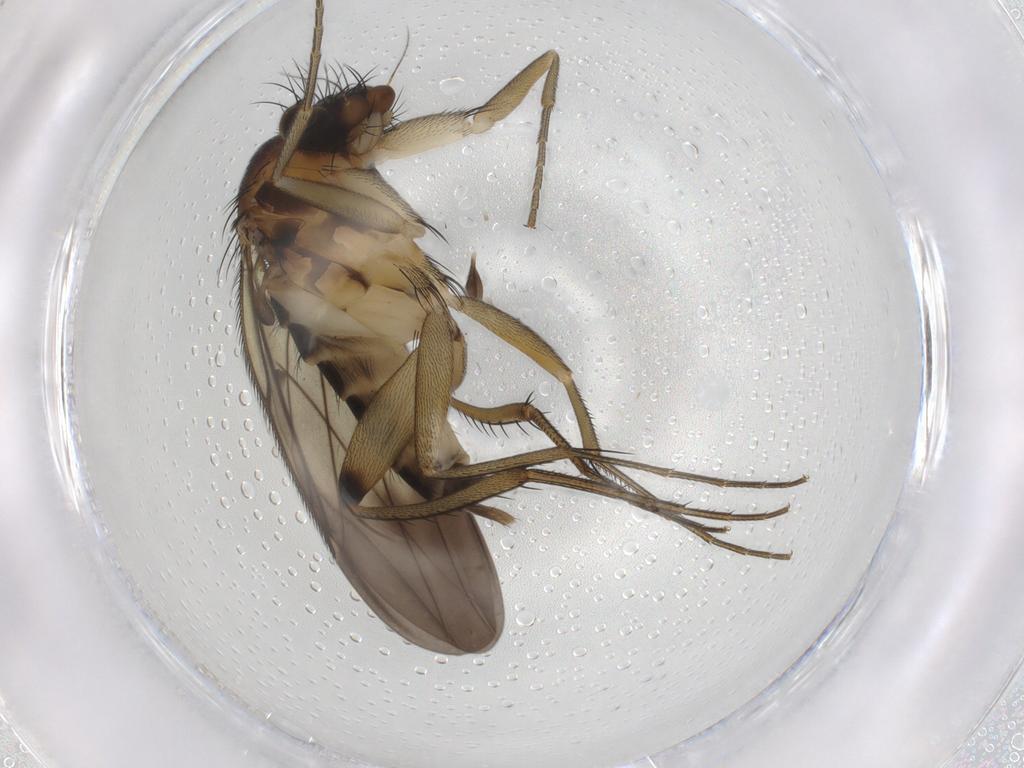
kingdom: Animalia
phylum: Arthropoda
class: Insecta
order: Diptera
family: Sciaridae
